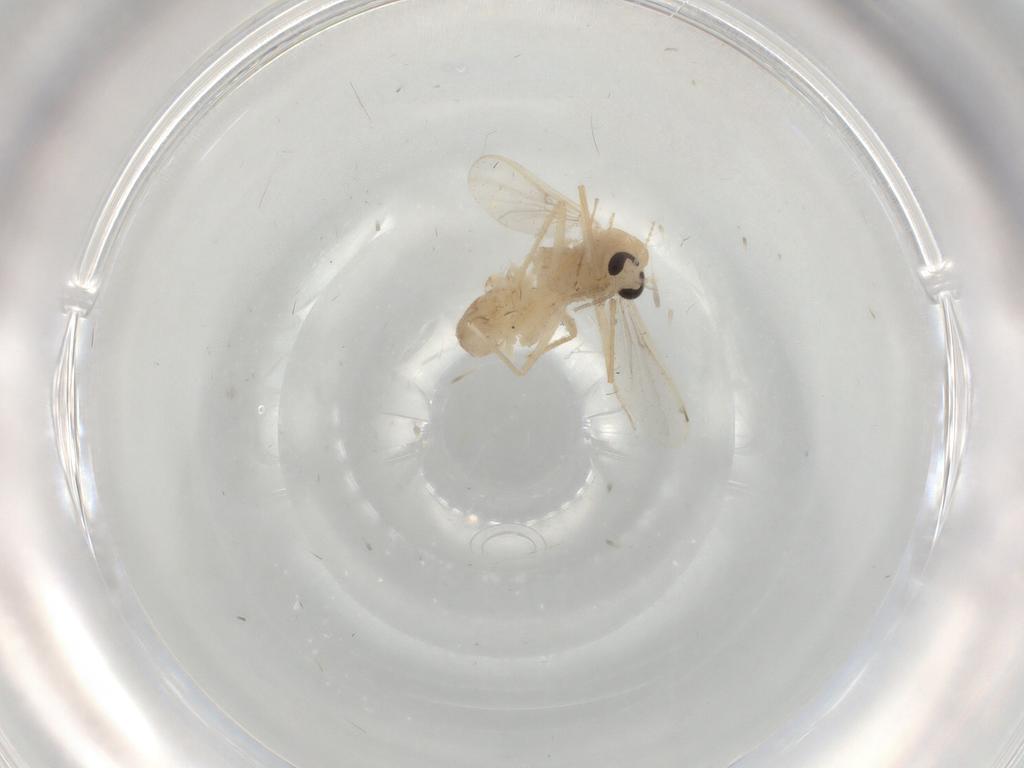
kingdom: Animalia
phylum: Arthropoda
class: Insecta
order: Diptera
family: Chironomidae
